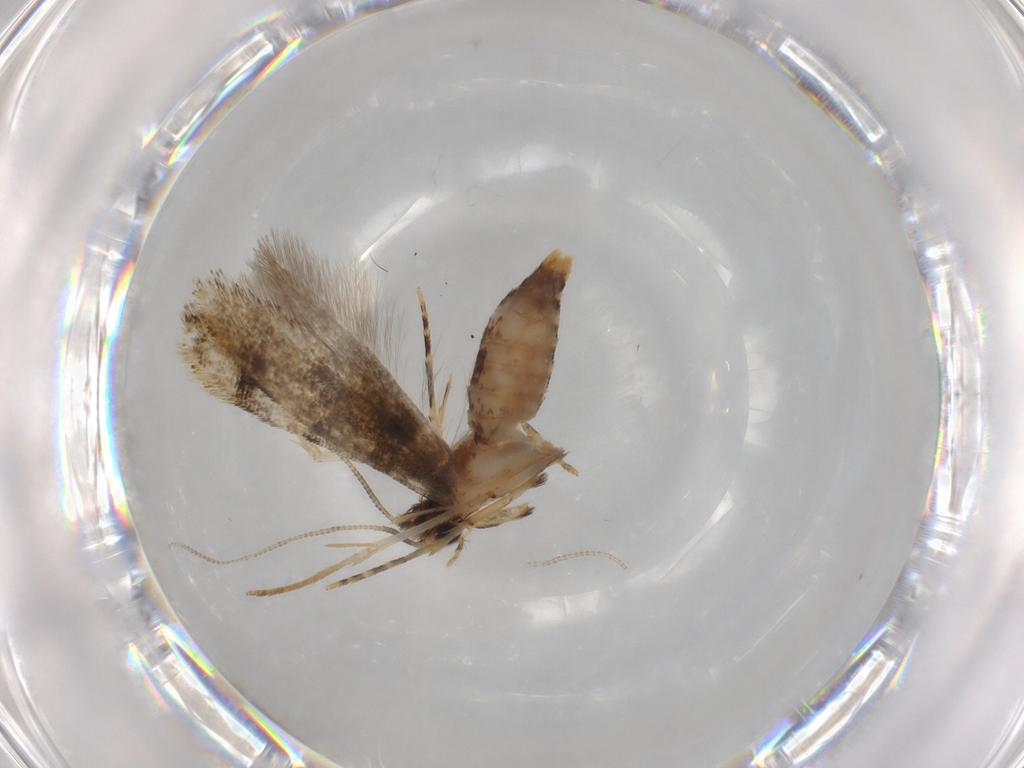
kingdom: Animalia
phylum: Arthropoda
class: Insecta
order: Lepidoptera
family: Tineidae
